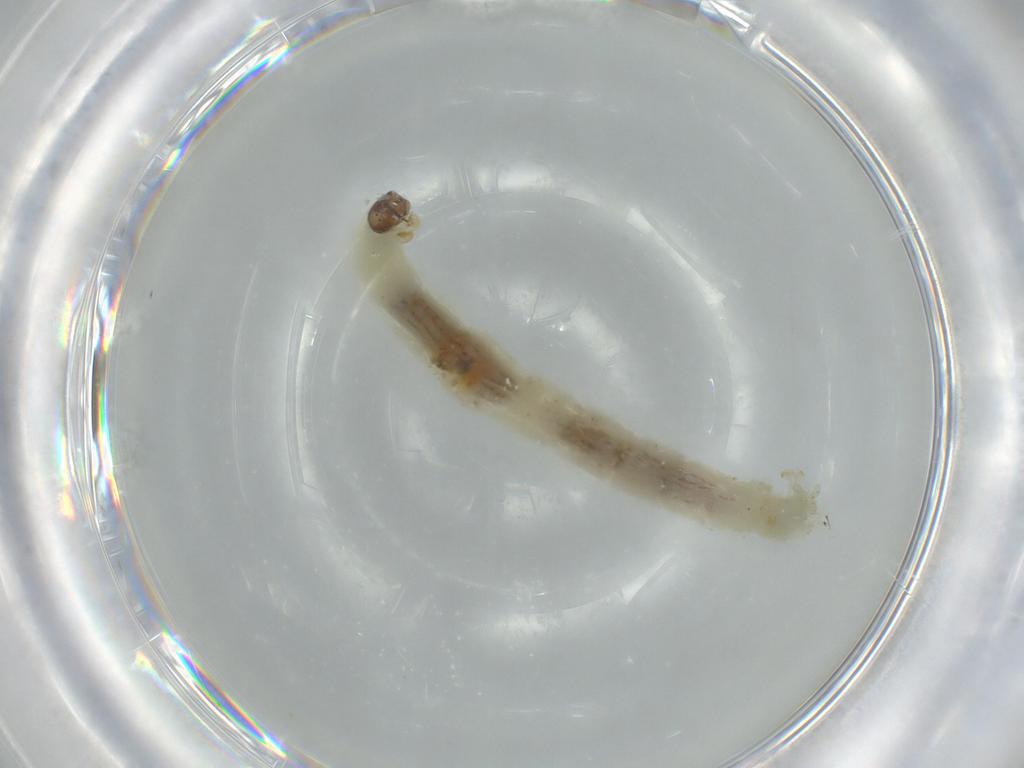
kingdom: Animalia
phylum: Arthropoda
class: Insecta
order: Diptera
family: Chironomidae
